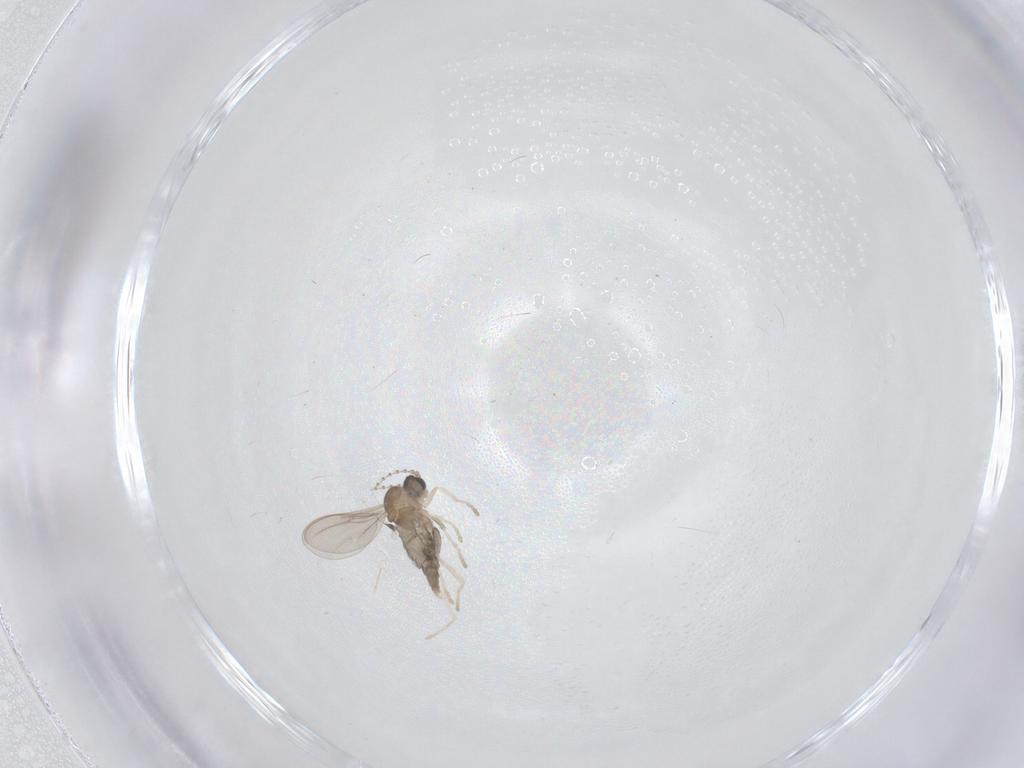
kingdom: Animalia
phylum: Arthropoda
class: Insecta
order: Diptera
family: Cecidomyiidae
